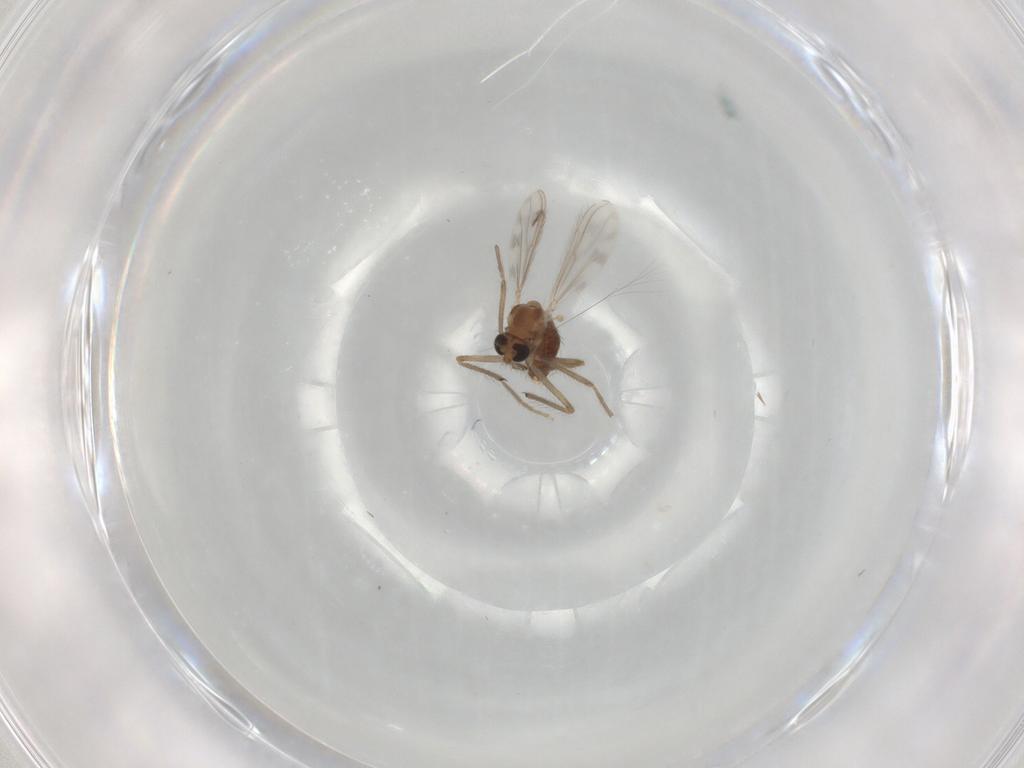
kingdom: Animalia
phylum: Arthropoda
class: Insecta
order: Diptera
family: Chironomidae
